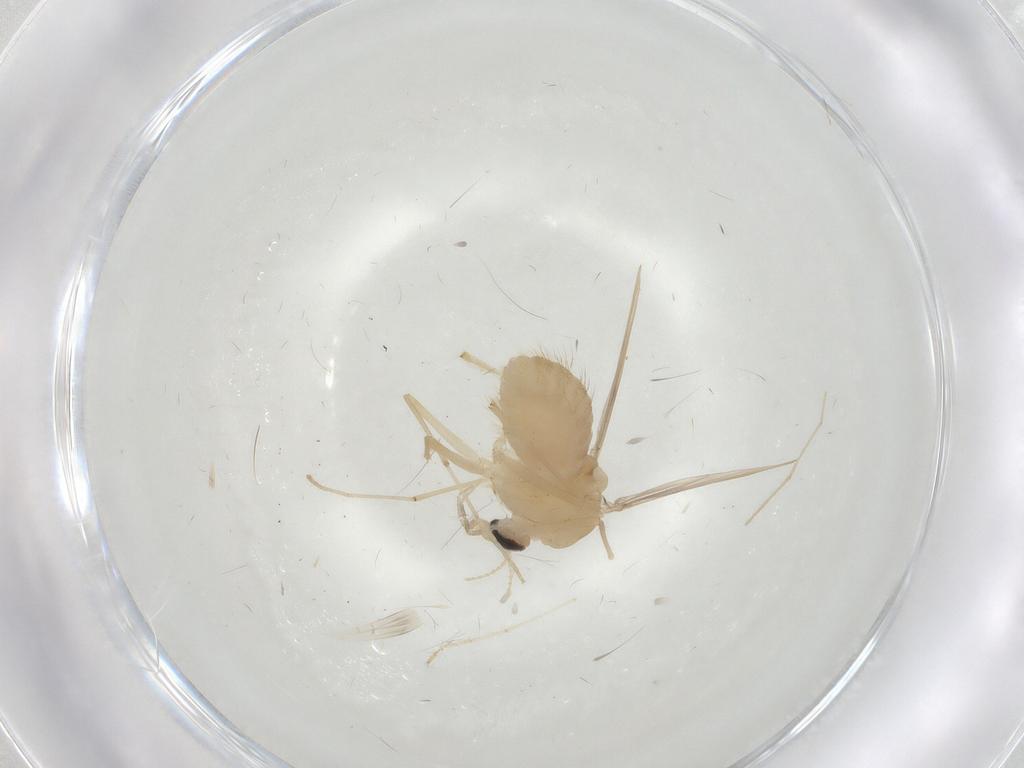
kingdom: Animalia
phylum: Arthropoda
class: Insecta
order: Diptera
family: Chironomidae
